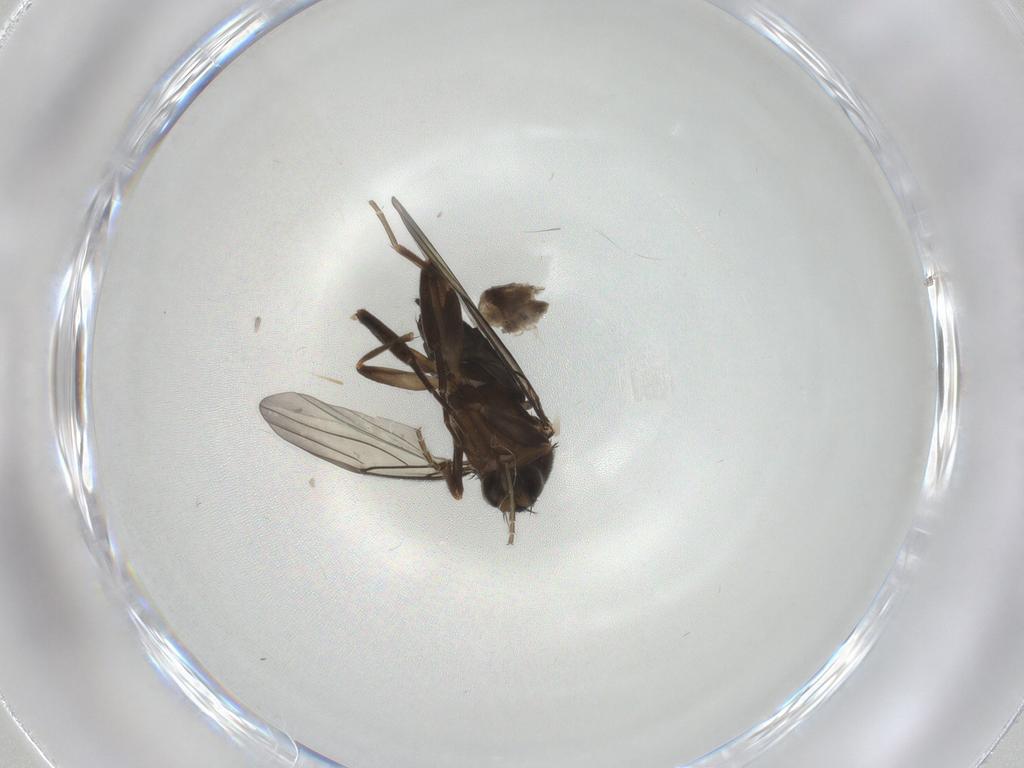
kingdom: Animalia
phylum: Arthropoda
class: Insecta
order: Diptera
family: Ceratopogonidae
